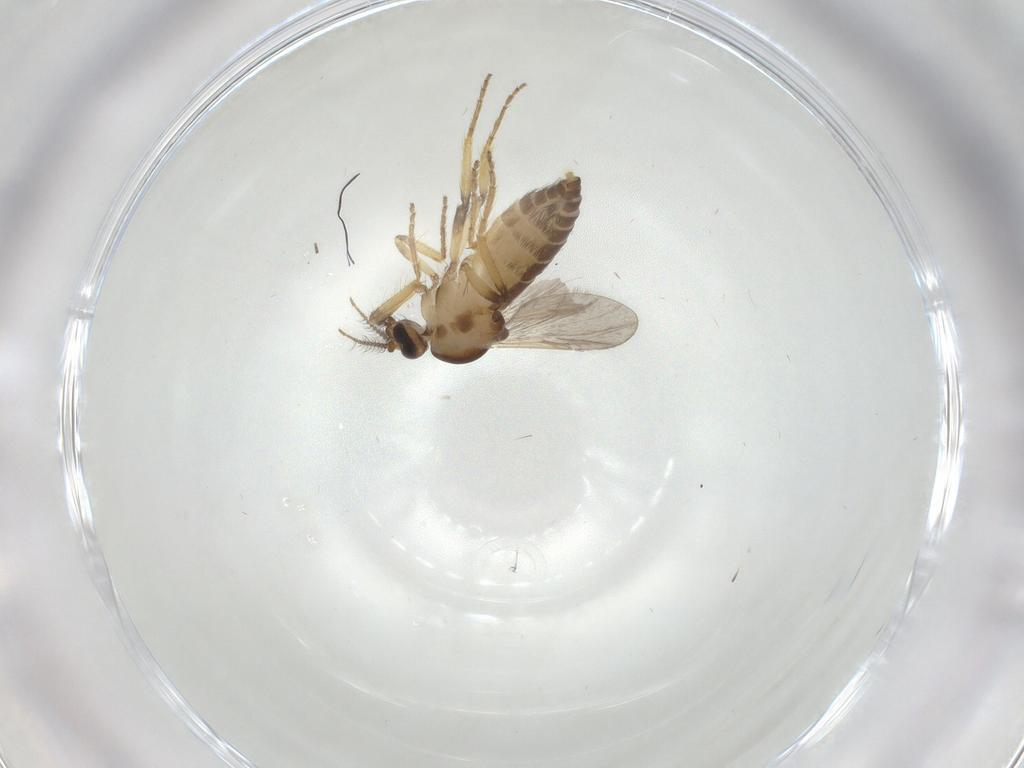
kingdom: Animalia
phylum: Arthropoda
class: Insecta
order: Diptera
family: Ceratopogonidae
